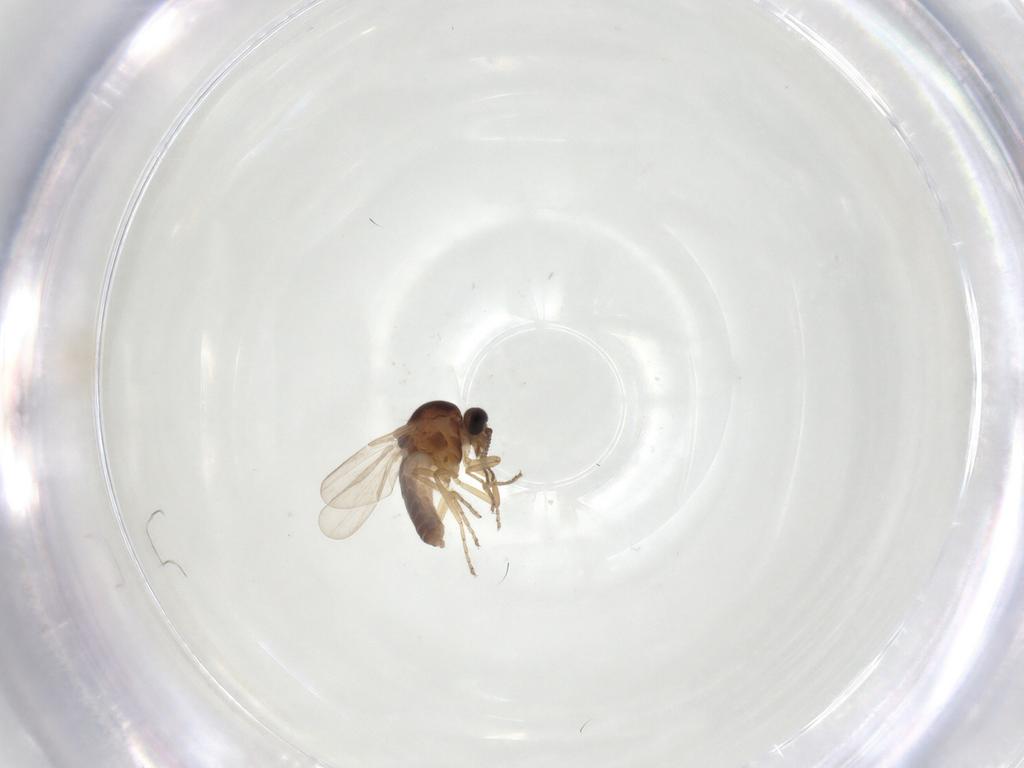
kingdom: Animalia
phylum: Arthropoda
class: Insecta
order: Diptera
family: Ceratopogonidae
